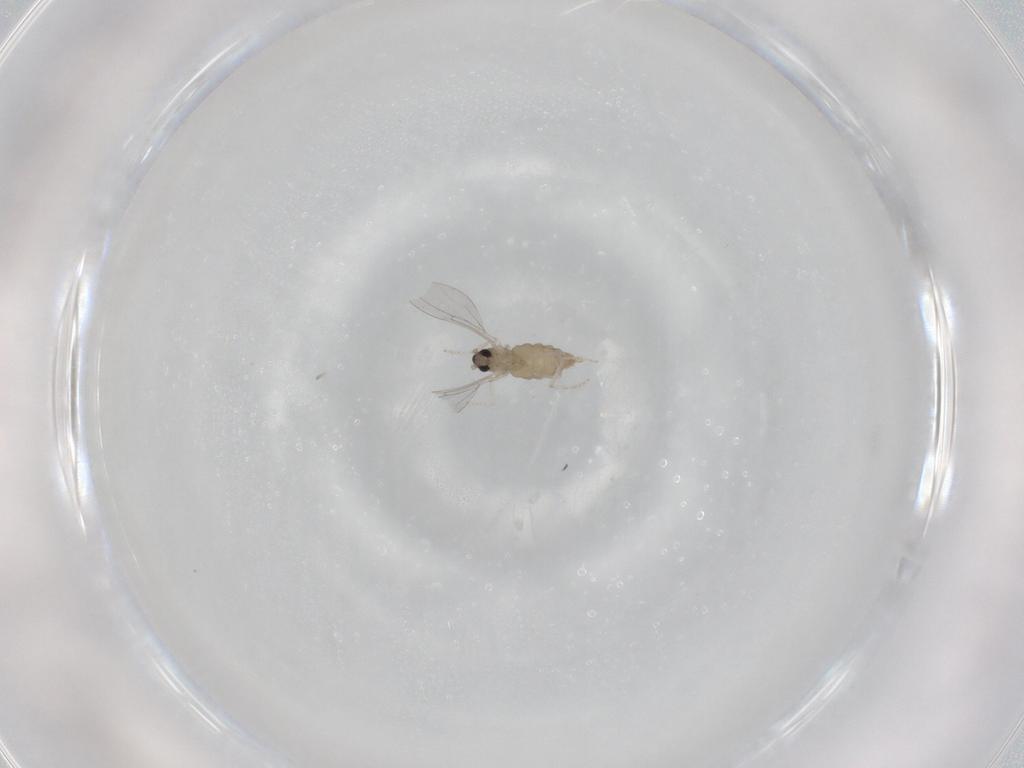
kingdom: Animalia
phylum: Arthropoda
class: Insecta
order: Diptera
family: Cecidomyiidae
